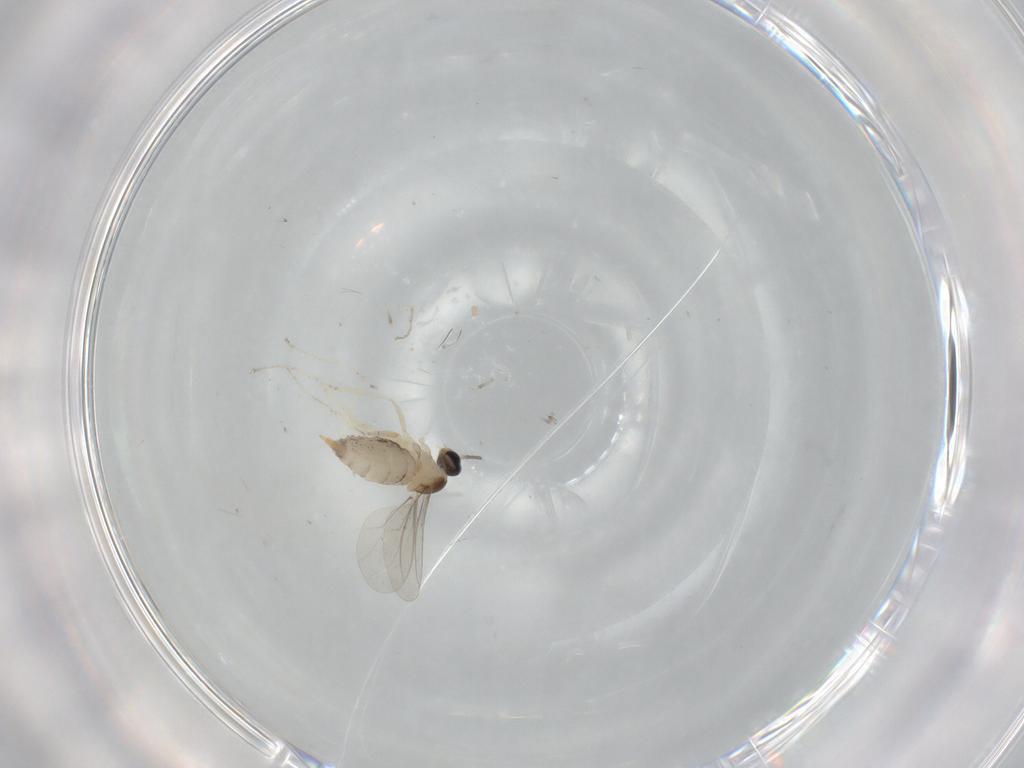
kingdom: Animalia
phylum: Arthropoda
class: Insecta
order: Diptera
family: Cecidomyiidae
